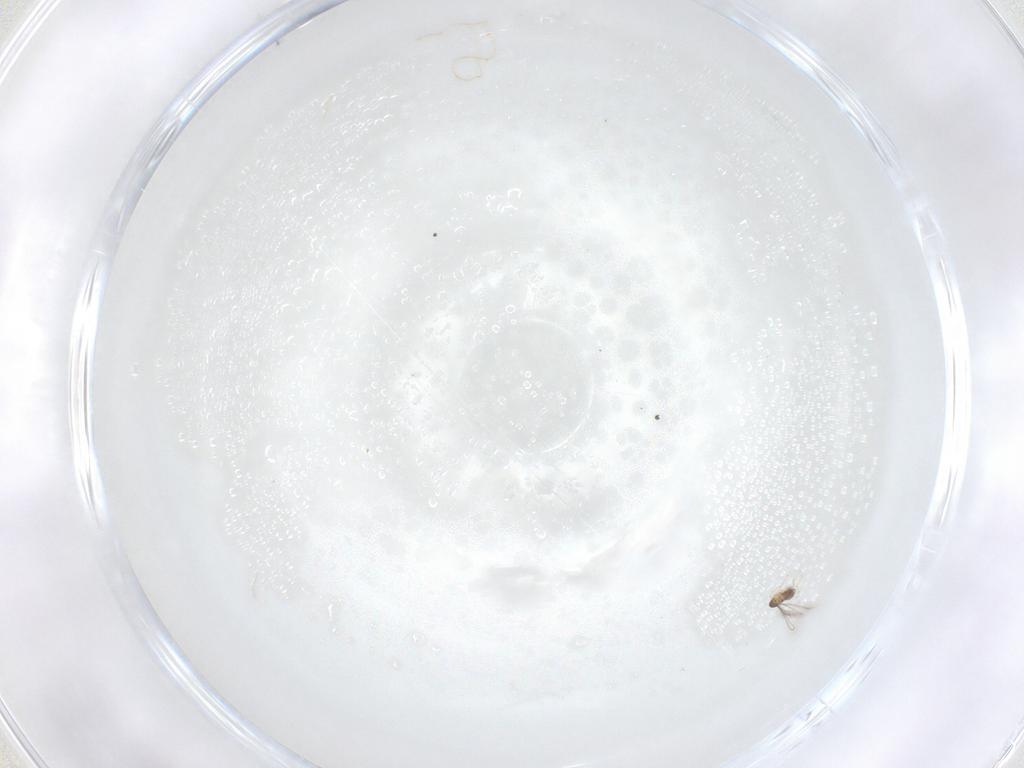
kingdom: Animalia
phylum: Arthropoda
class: Insecta
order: Hymenoptera
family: Mymaridae
